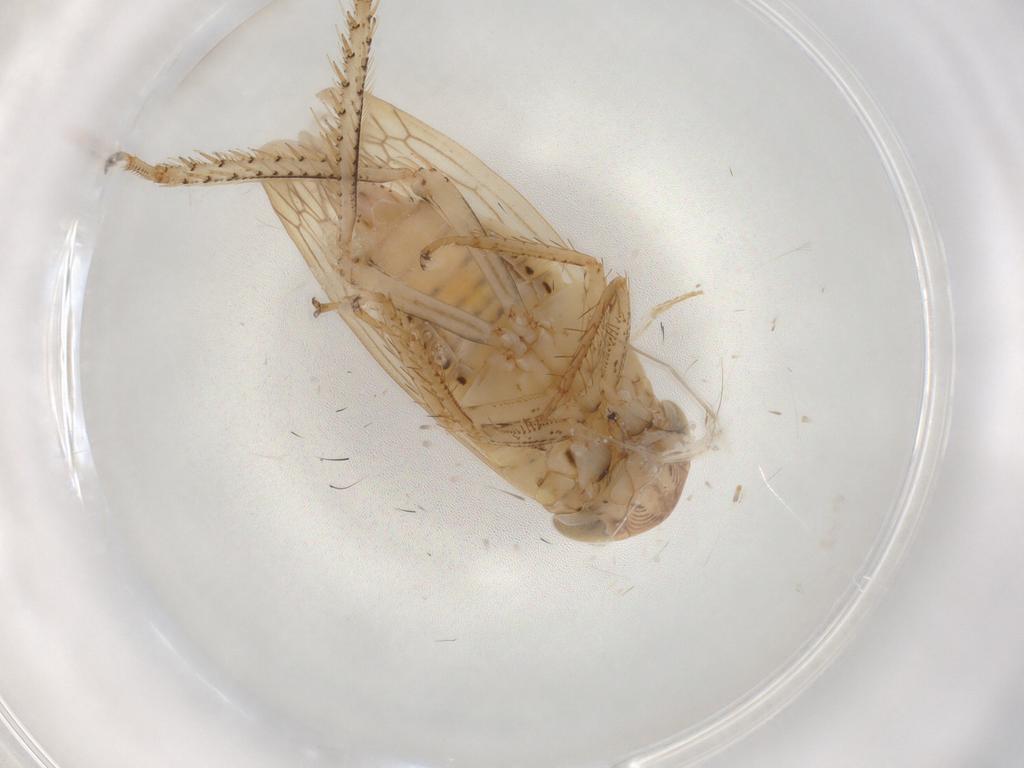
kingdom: Animalia
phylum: Arthropoda
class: Insecta
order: Hemiptera
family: Cicadellidae
